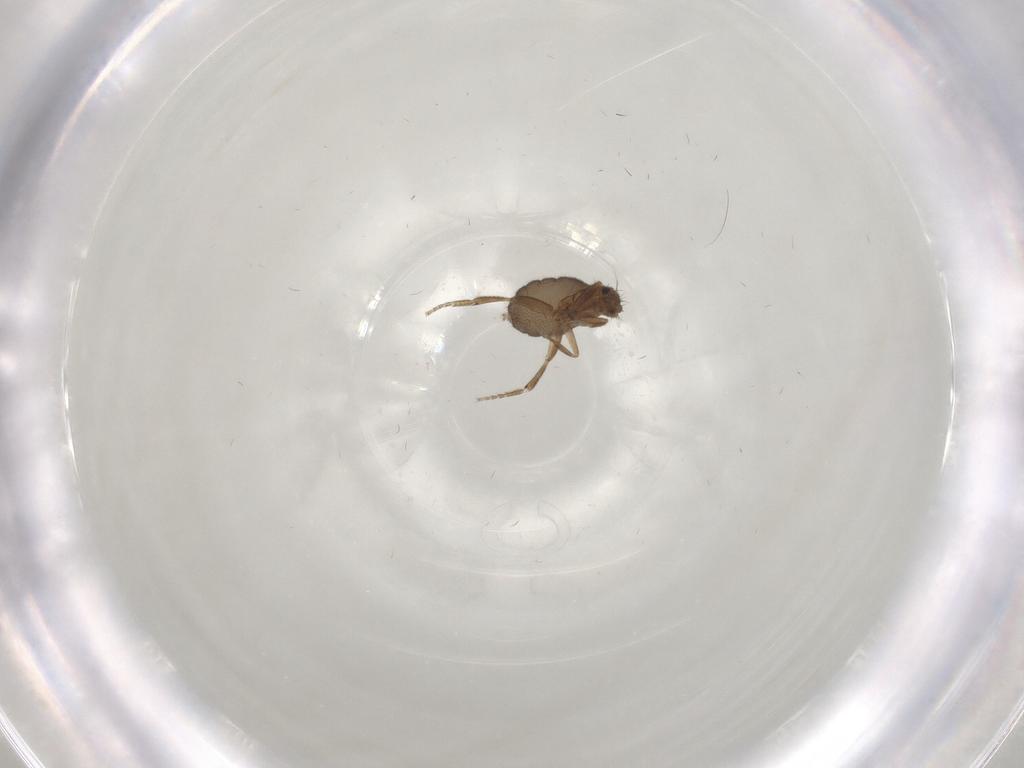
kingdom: Animalia
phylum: Arthropoda
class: Insecta
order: Diptera
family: Phoridae
